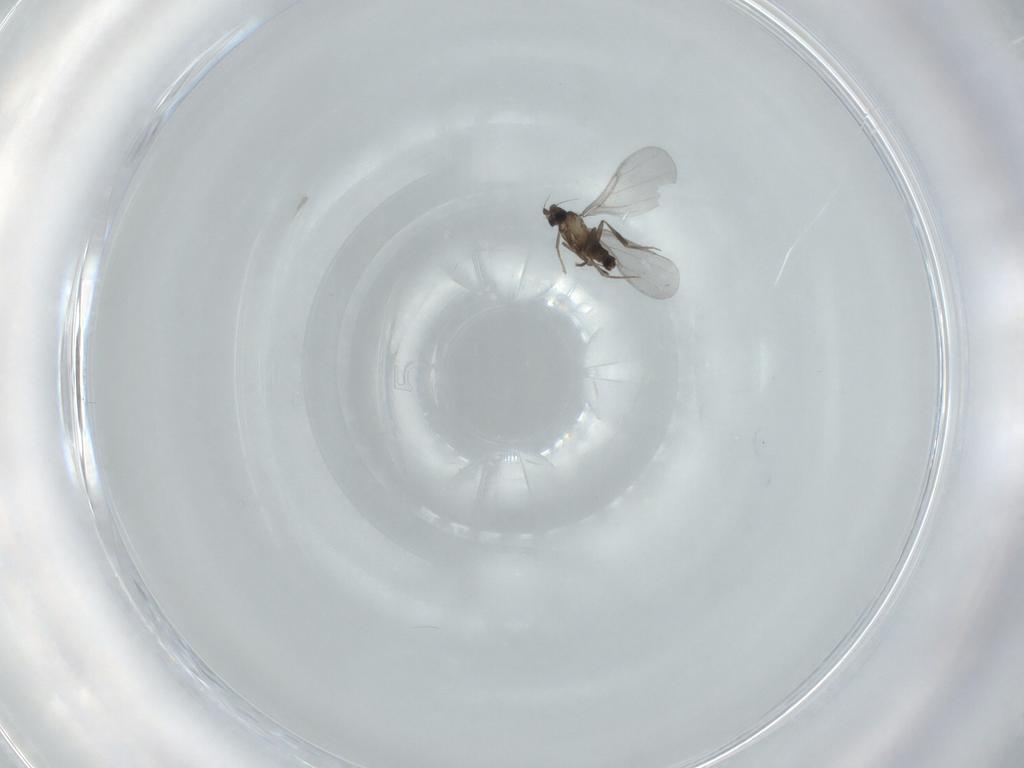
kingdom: Animalia
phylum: Arthropoda
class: Insecta
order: Diptera
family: Phoridae
